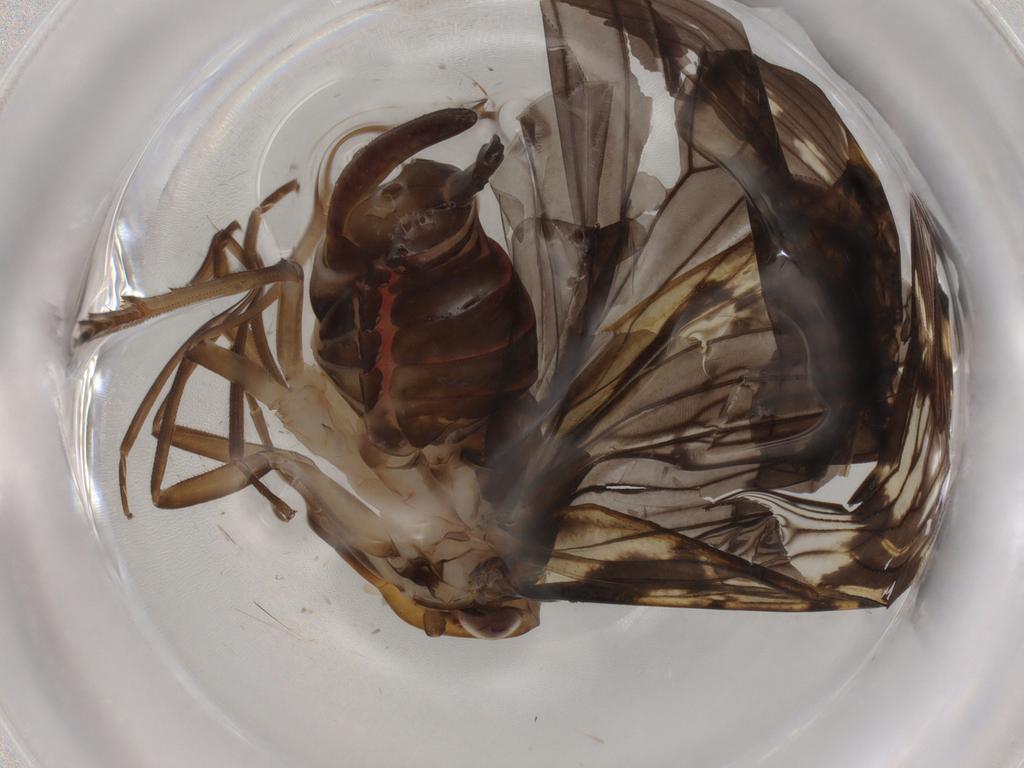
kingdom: Animalia
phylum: Arthropoda
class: Insecta
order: Hemiptera
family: Cixiidae
